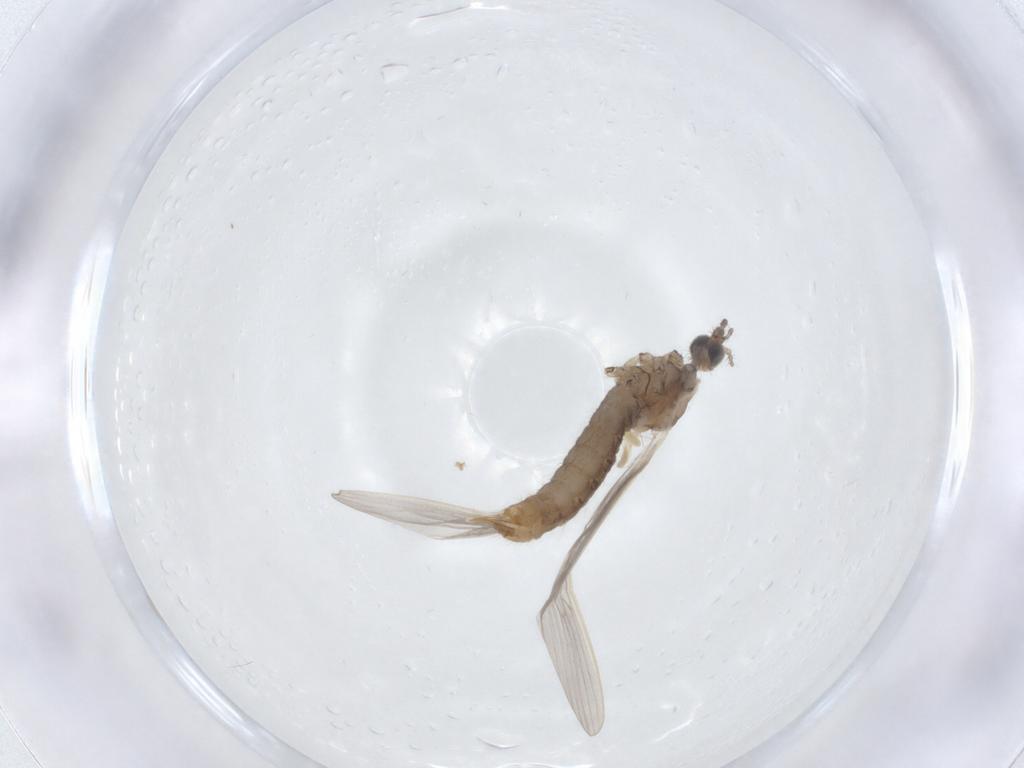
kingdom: Animalia
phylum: Arthropoda
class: Insecta
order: Diptera
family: Limoniidae
